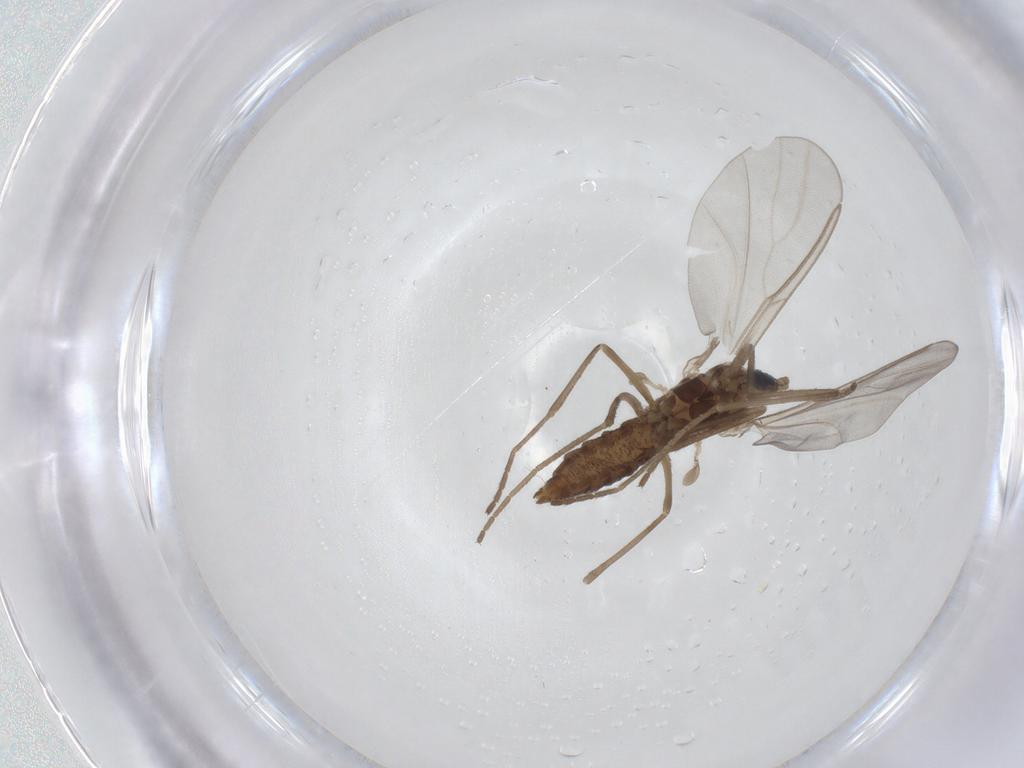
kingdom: Animalia
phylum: Arthropoda
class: Insecta
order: Diptera
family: Cecidomyiidae
